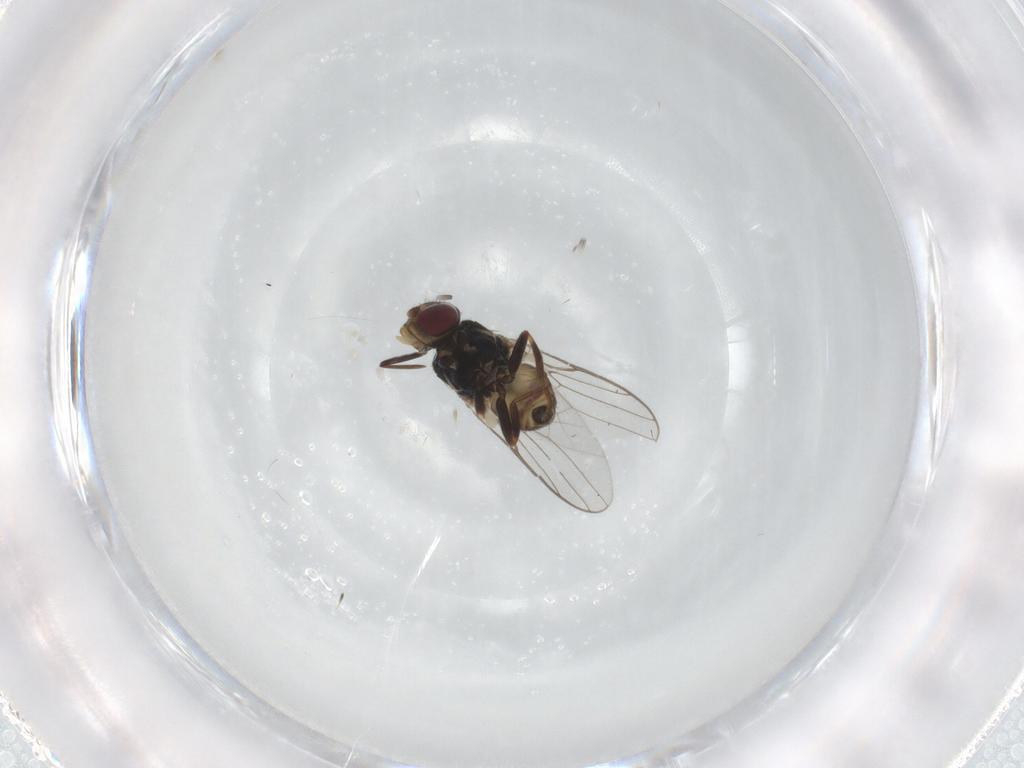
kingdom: Animalia
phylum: Arthropoda
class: Insecta
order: Diptera
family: Chloropidae
